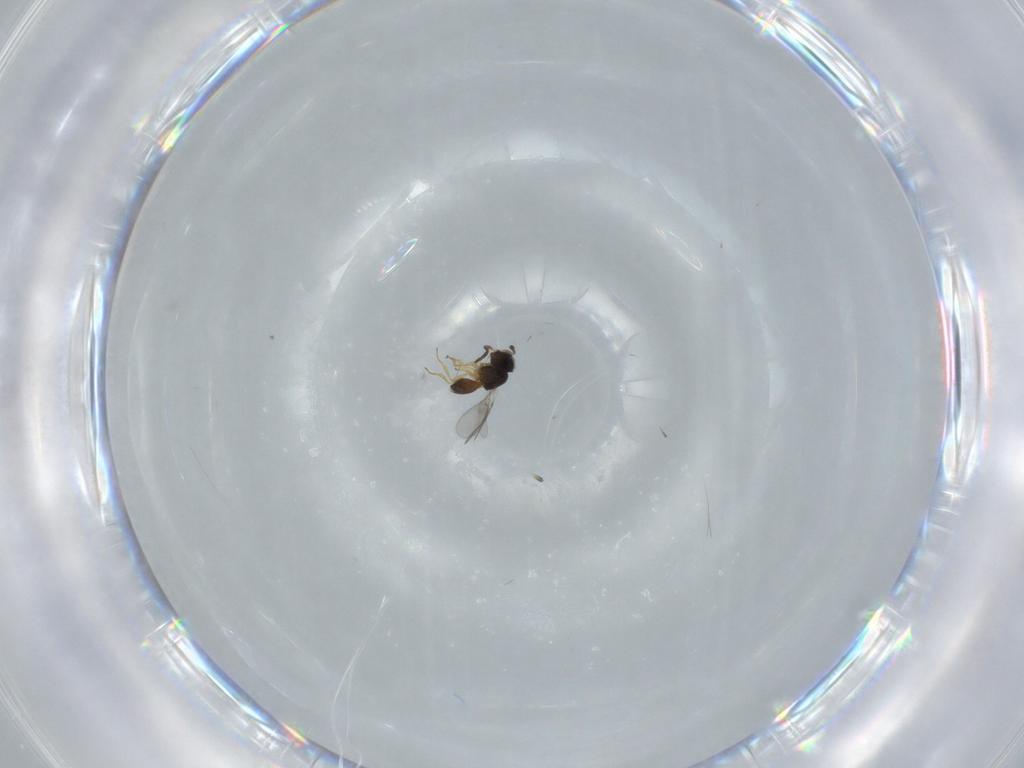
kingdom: Animalia
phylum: Arthropoda
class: Insecta
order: Hymenoptera
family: Scelionidae
